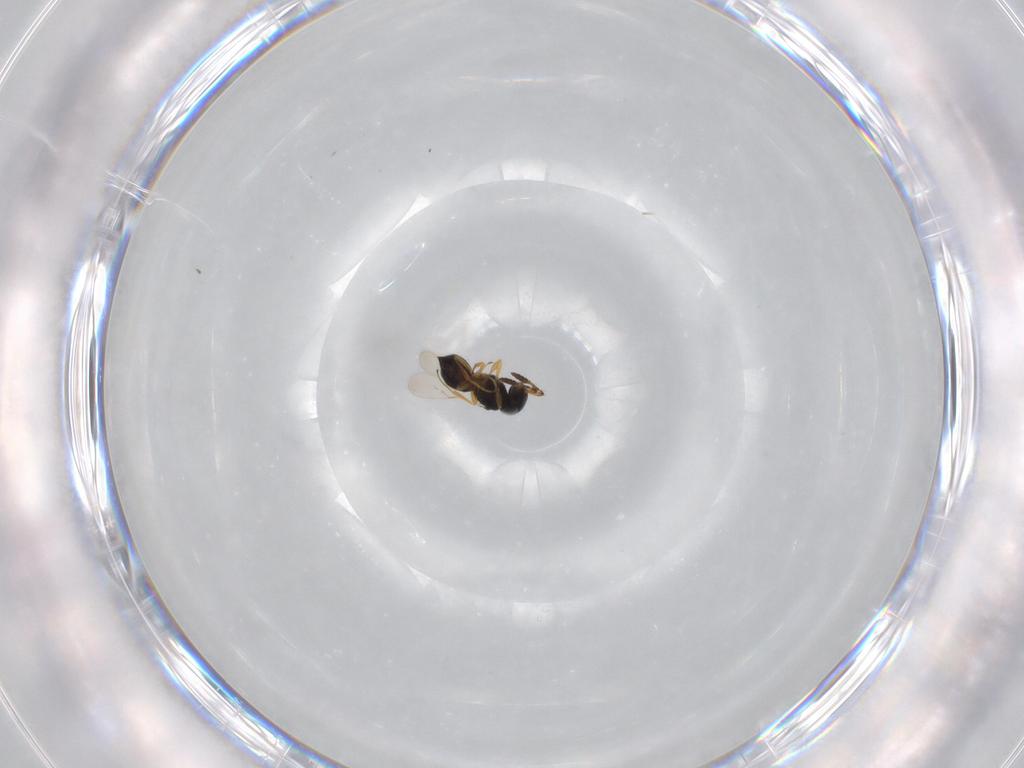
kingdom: Animalia
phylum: Arthropoda
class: Insecta
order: Hymenoptera
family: Scelionidae
